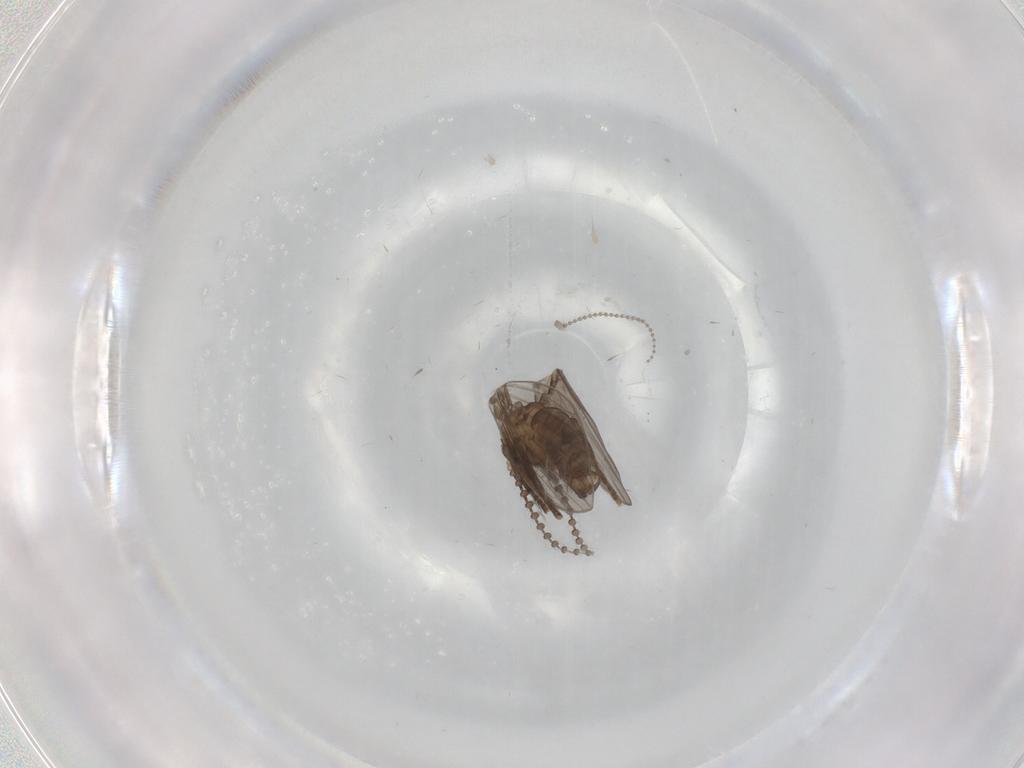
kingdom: Animalia
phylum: Arthropoda
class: Insecta
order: Diptera
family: Psychodidae
